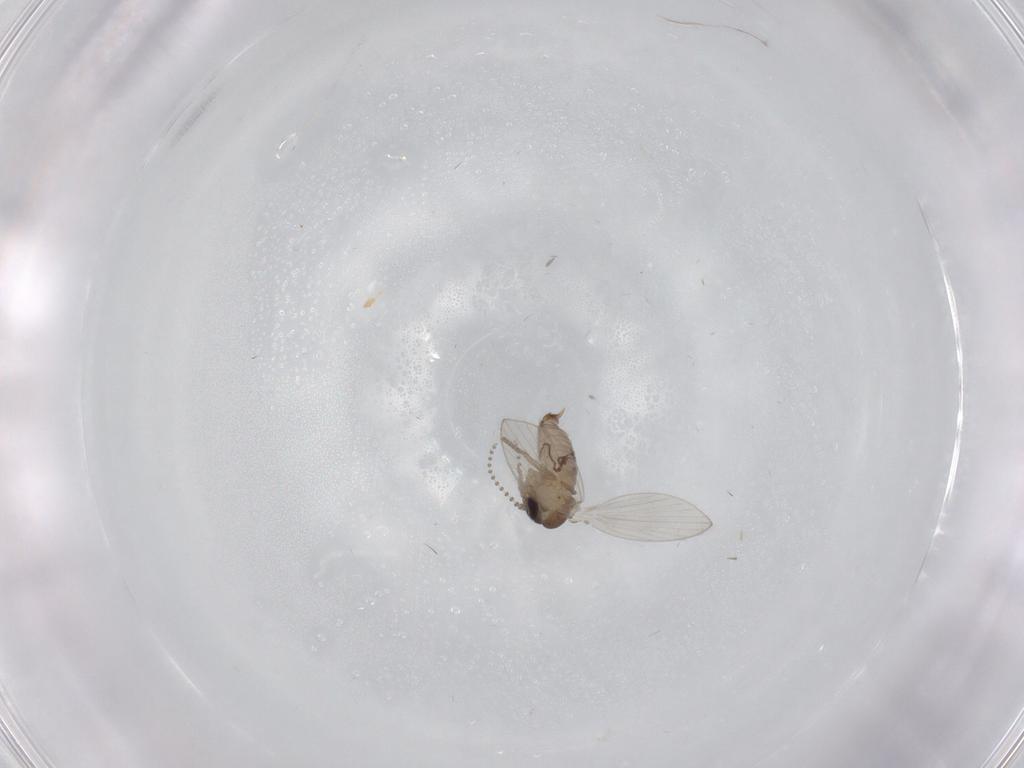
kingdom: Animalia
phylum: Arthropoda
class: Insecta
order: Diptera
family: Psychodidae
